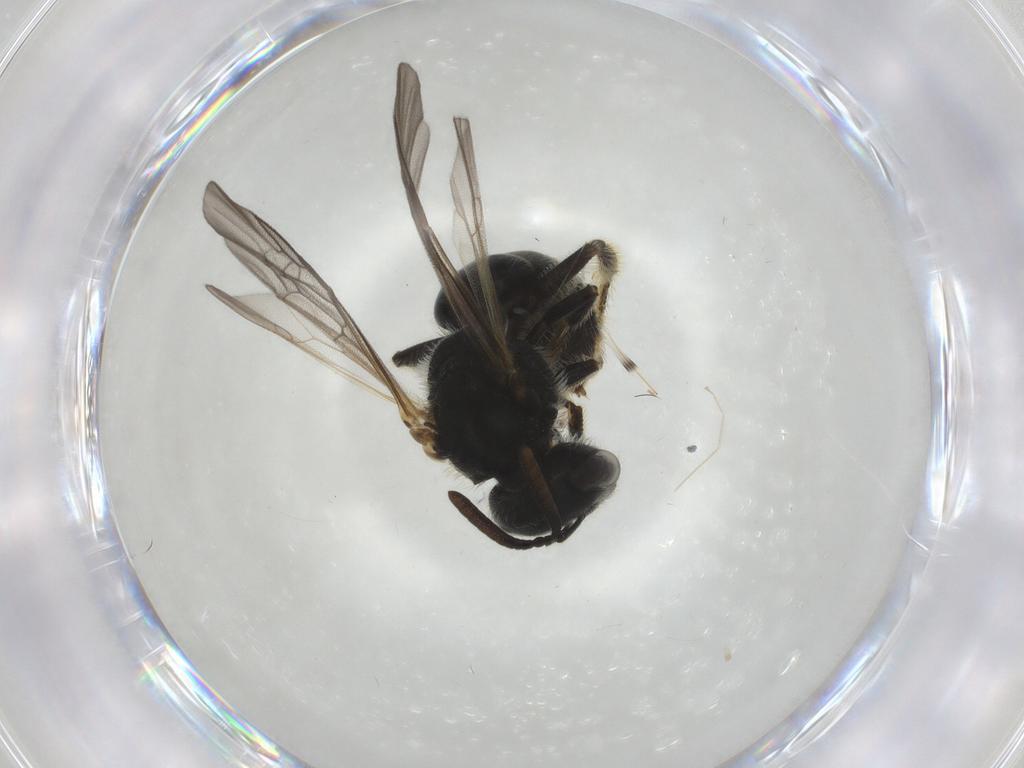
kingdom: Animalia
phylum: Arthropoda
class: Insecta
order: Hymenoptera
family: Halictidae
